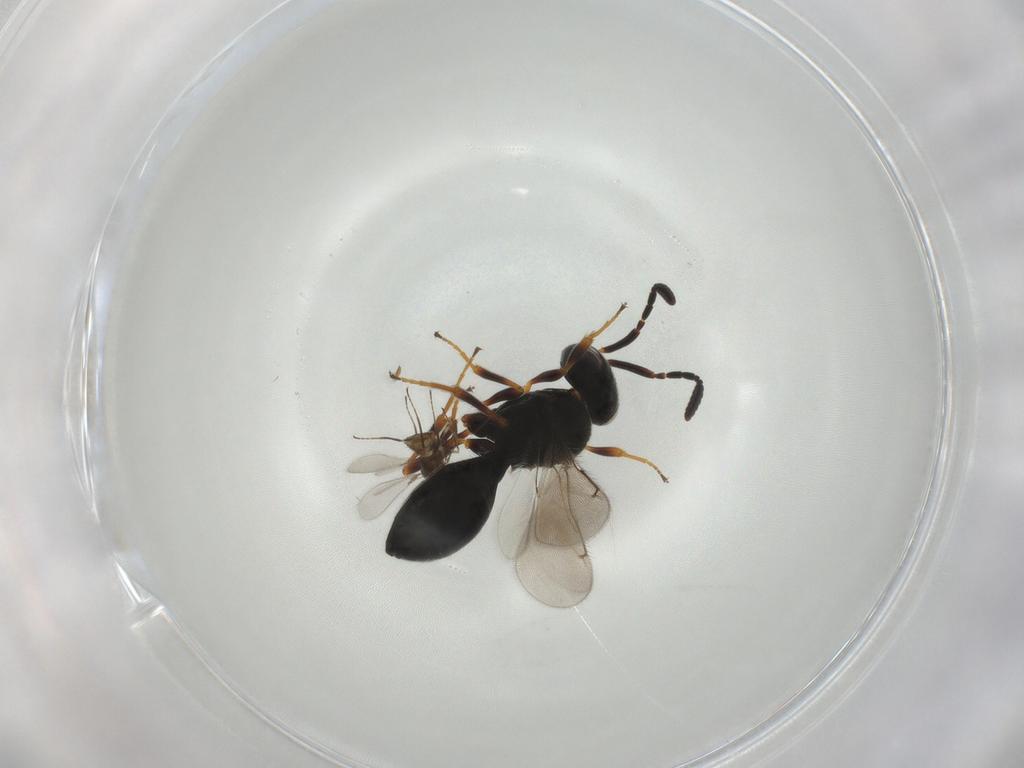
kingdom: Animalia
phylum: Arthropoda
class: Insecta
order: Hymenoptera
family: Scelionidae
